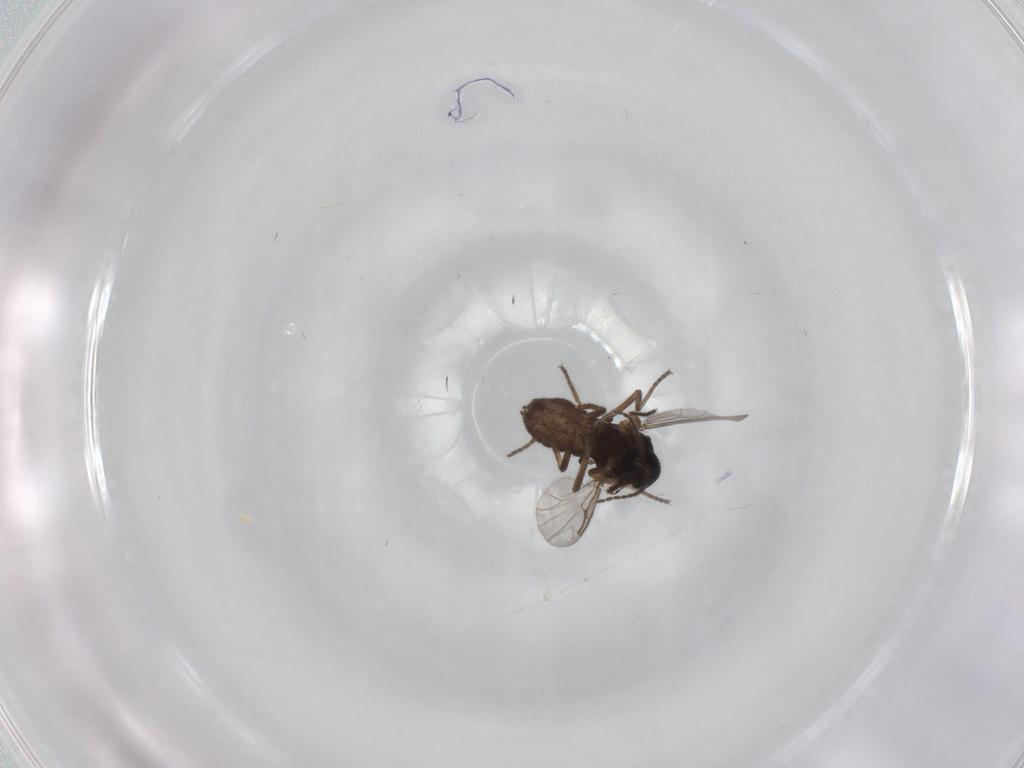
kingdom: Animalia
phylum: Arthropoda
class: Insecta
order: Diptera
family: Ceratopogonidae
